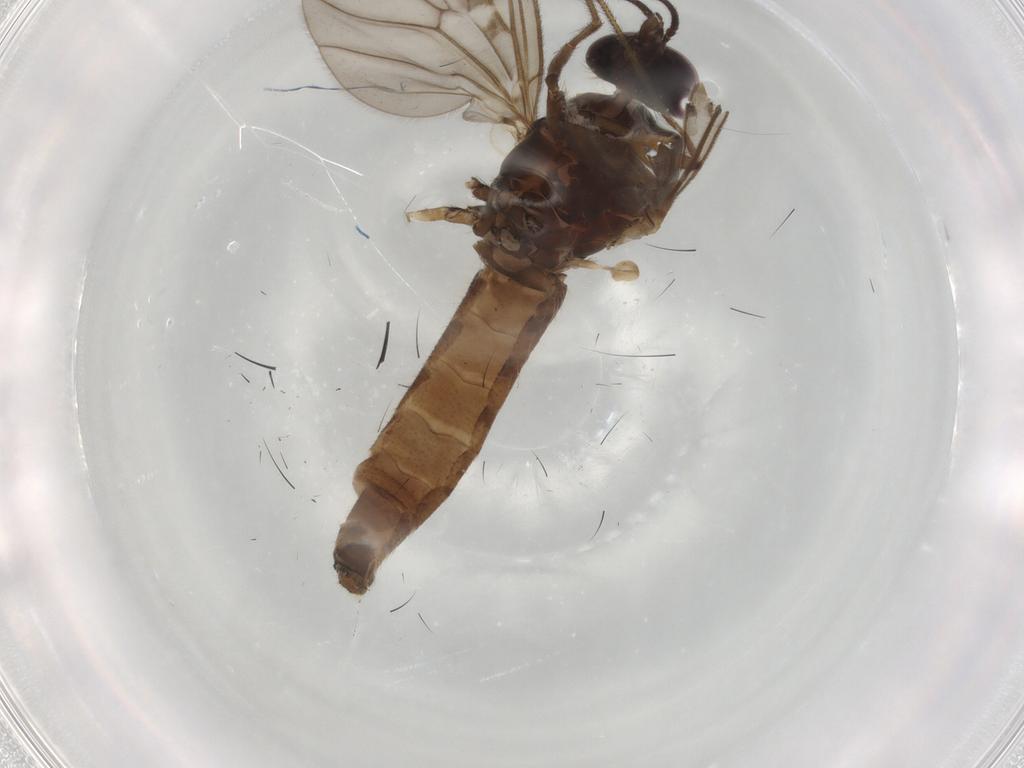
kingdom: Animalia
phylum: Arthropoda
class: Insecta
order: Diptera
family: Anisopodidae
